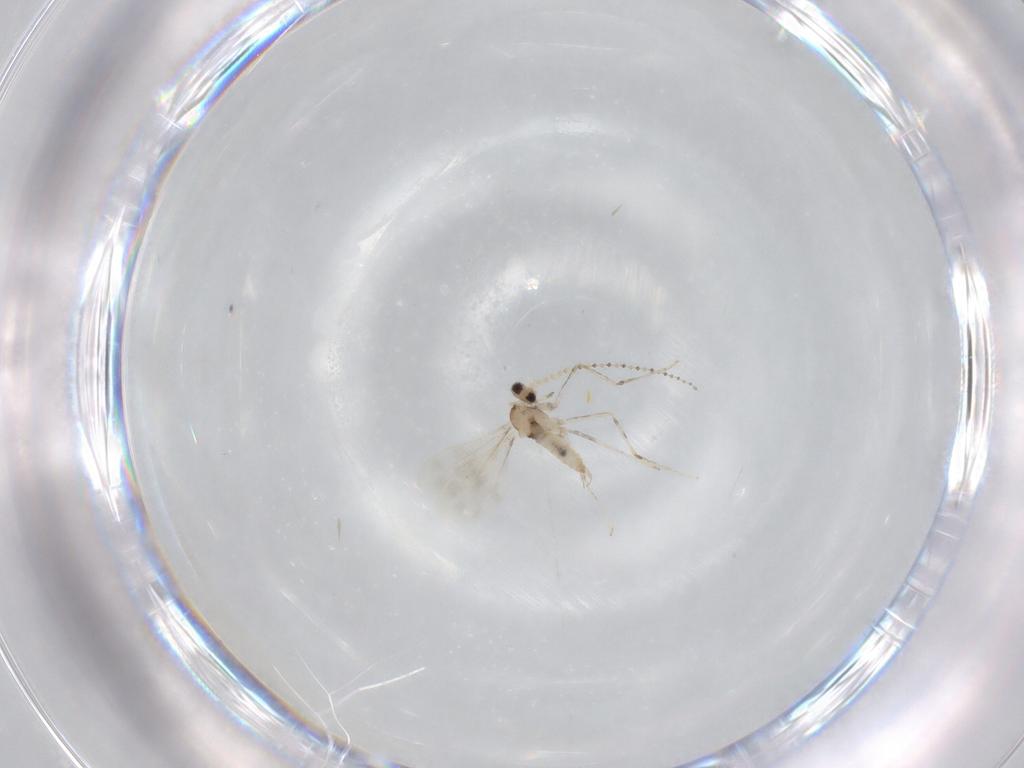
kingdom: Animalia
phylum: Arthropoda
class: Insecta
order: Diptera
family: Cecidomyiidae
